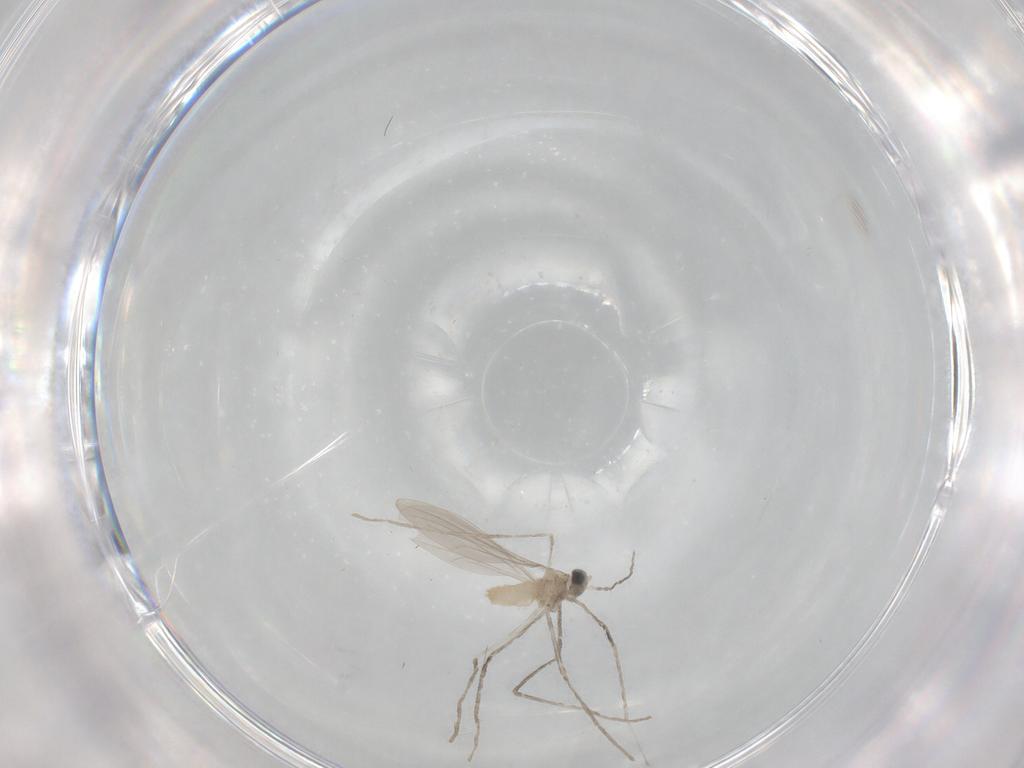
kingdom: Animalia
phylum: Arthropoda
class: Insecta
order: Diptera
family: Cecidomyiidae
